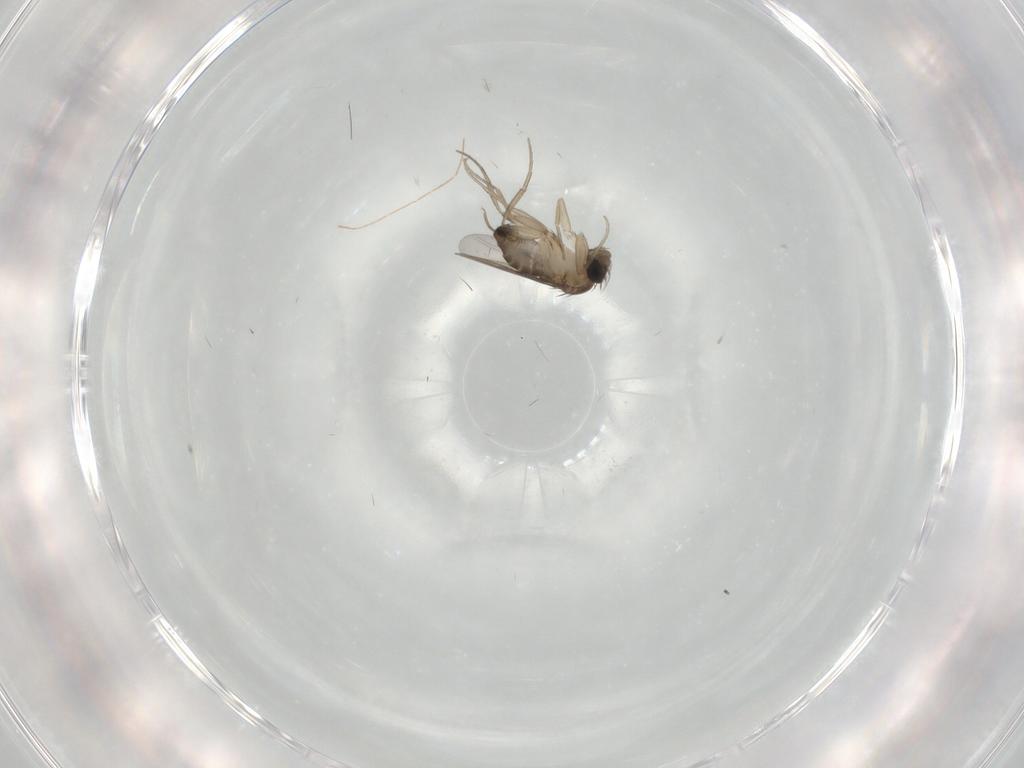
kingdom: Animalia
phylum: Arthropoda
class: Insecta
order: Diptera
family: Phoridae
